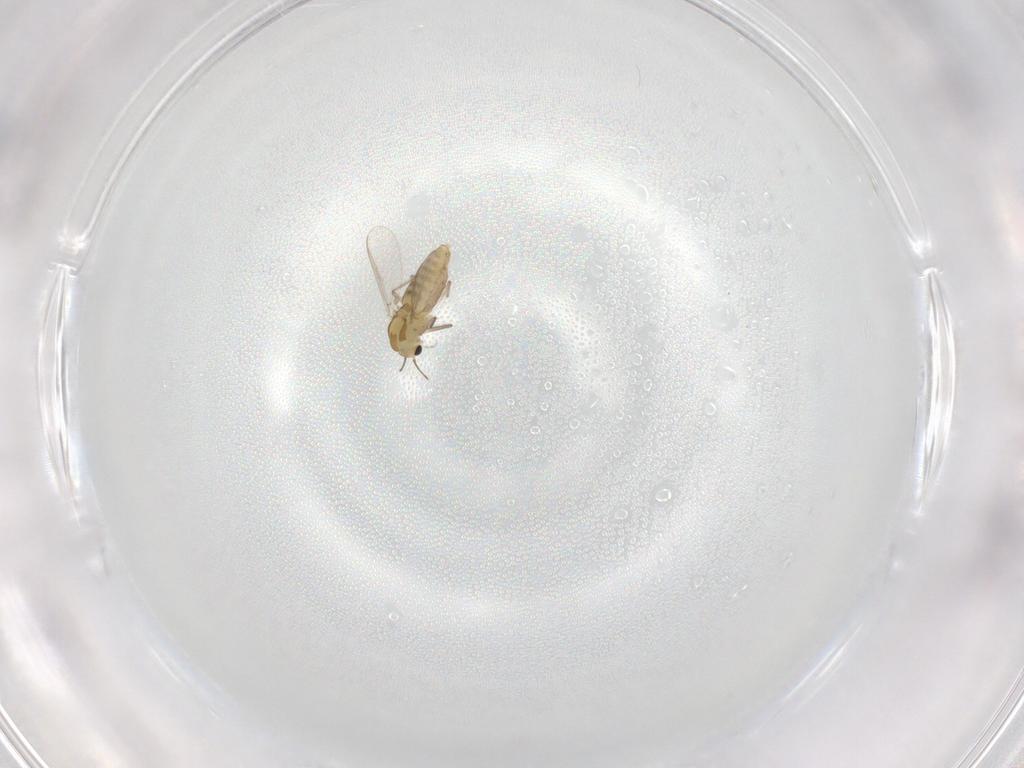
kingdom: Animalia
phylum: Arthropoda
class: Insecta
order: Diptera
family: Chironomidae
